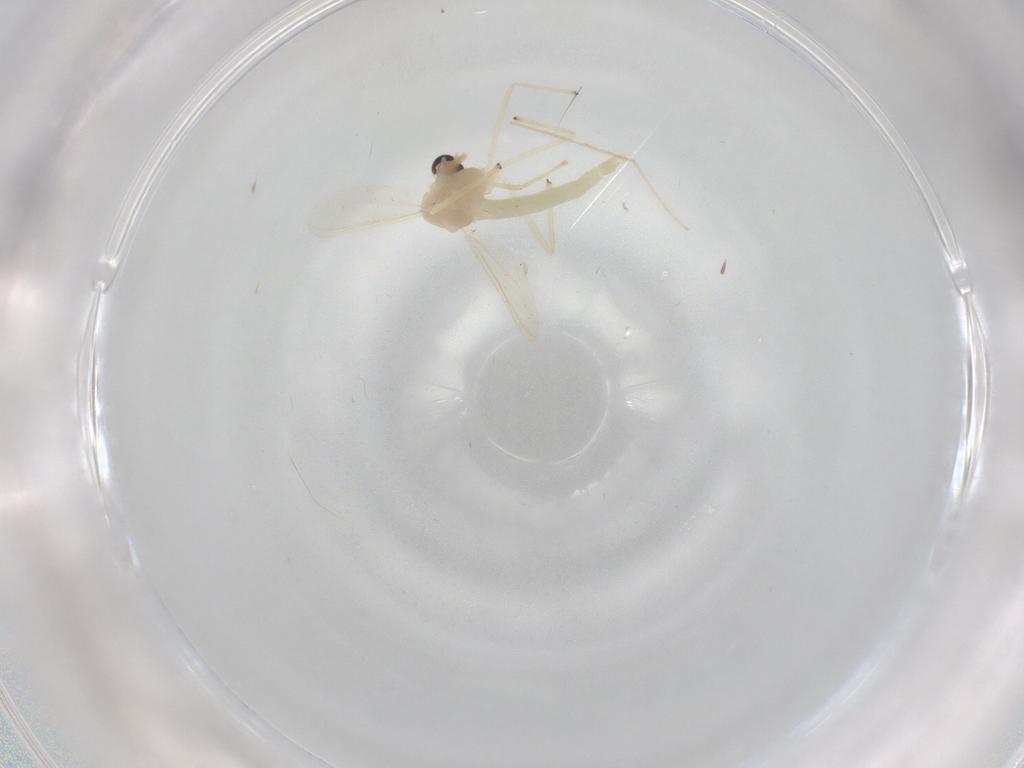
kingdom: Animalia
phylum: Arthropoda
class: Insecta
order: Diptera
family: Chironomidae
